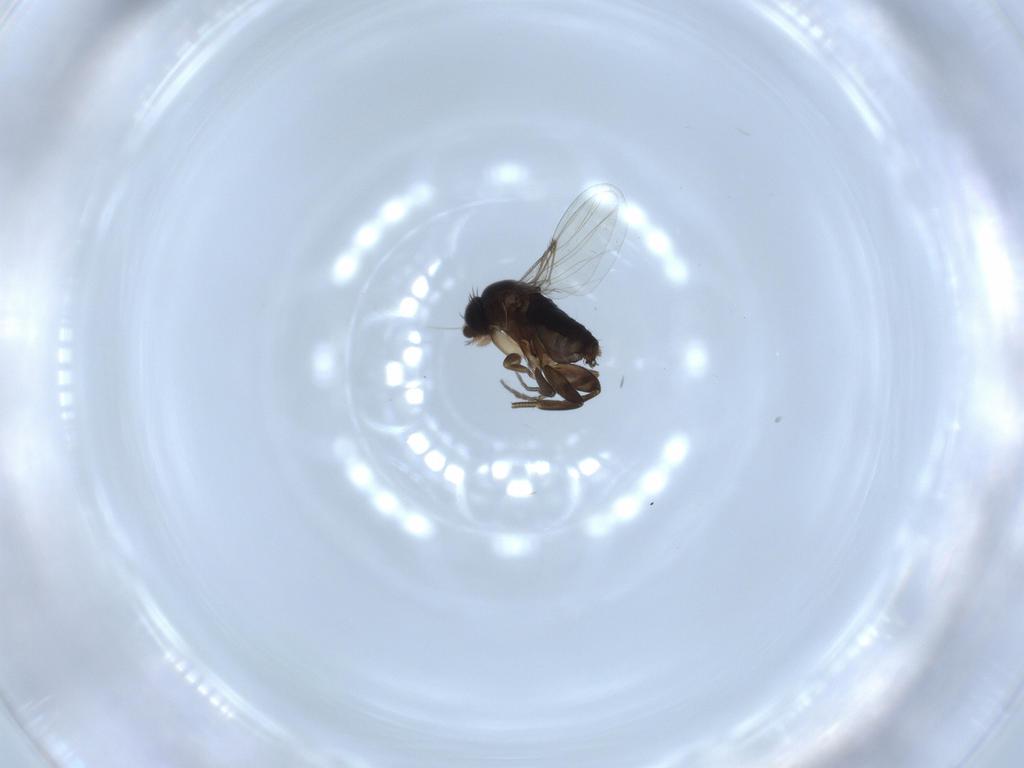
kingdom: Animalia
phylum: Arthropoda
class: Insecta
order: Diptera
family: Phoridae
